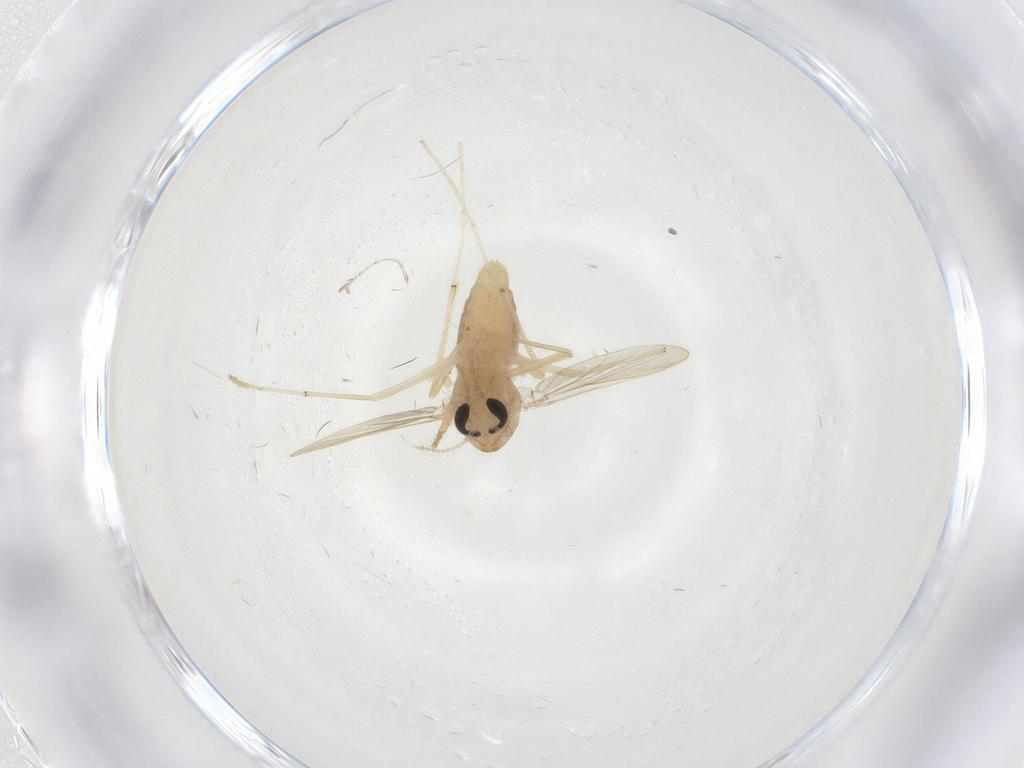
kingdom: Animalia
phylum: Arthropoda
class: Insecta
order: Diptera
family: Chironomidae
